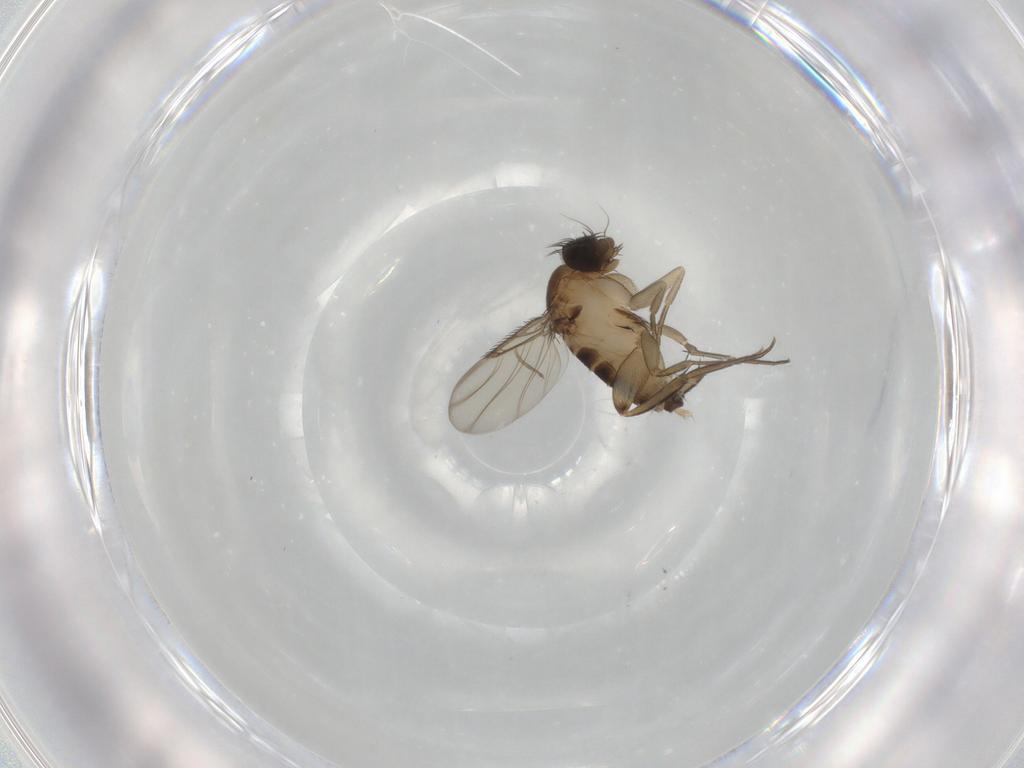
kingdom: Animalia
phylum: Arthropoda
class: Insecta
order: Diptera
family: Phoridae
